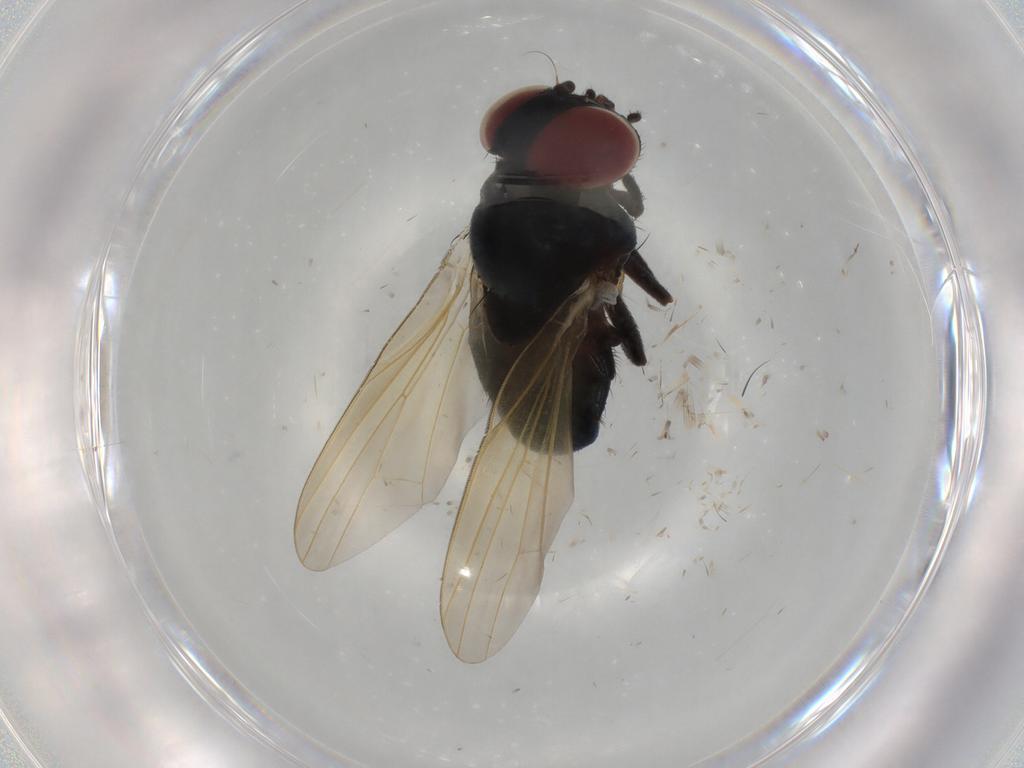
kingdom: Animalia
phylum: Arthropoda
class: Insecta
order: Diptera
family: Lonchaeidae
